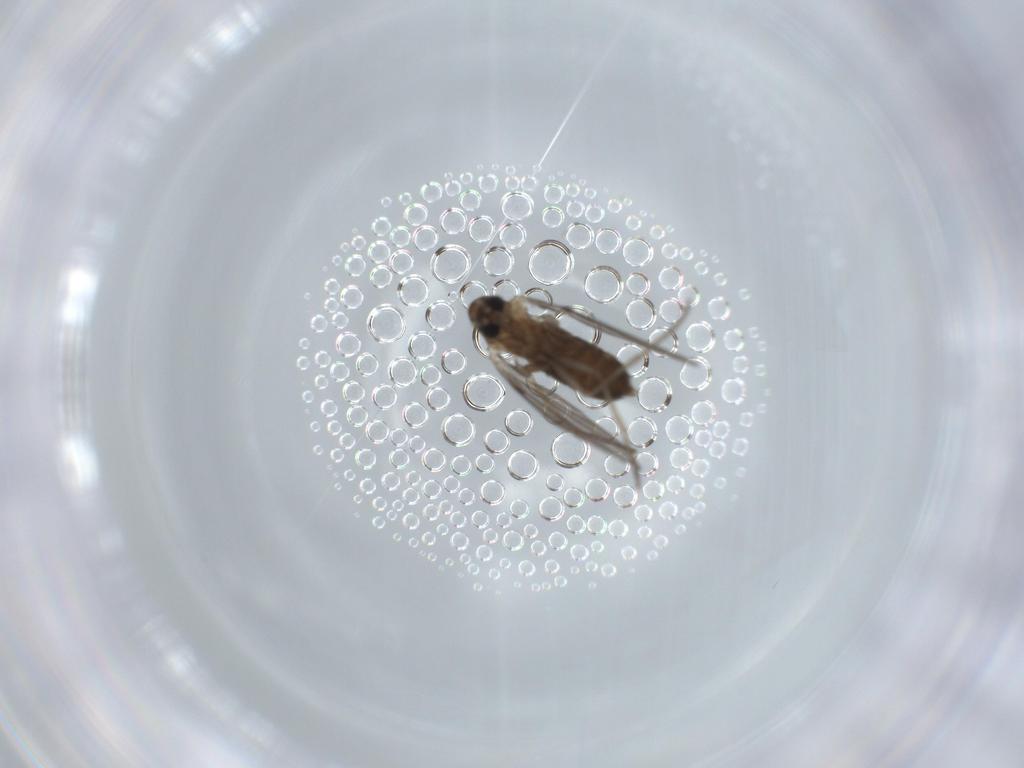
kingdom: Animalia
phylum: Arthropoda
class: Insecta
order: Diptera
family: Psychodidae
